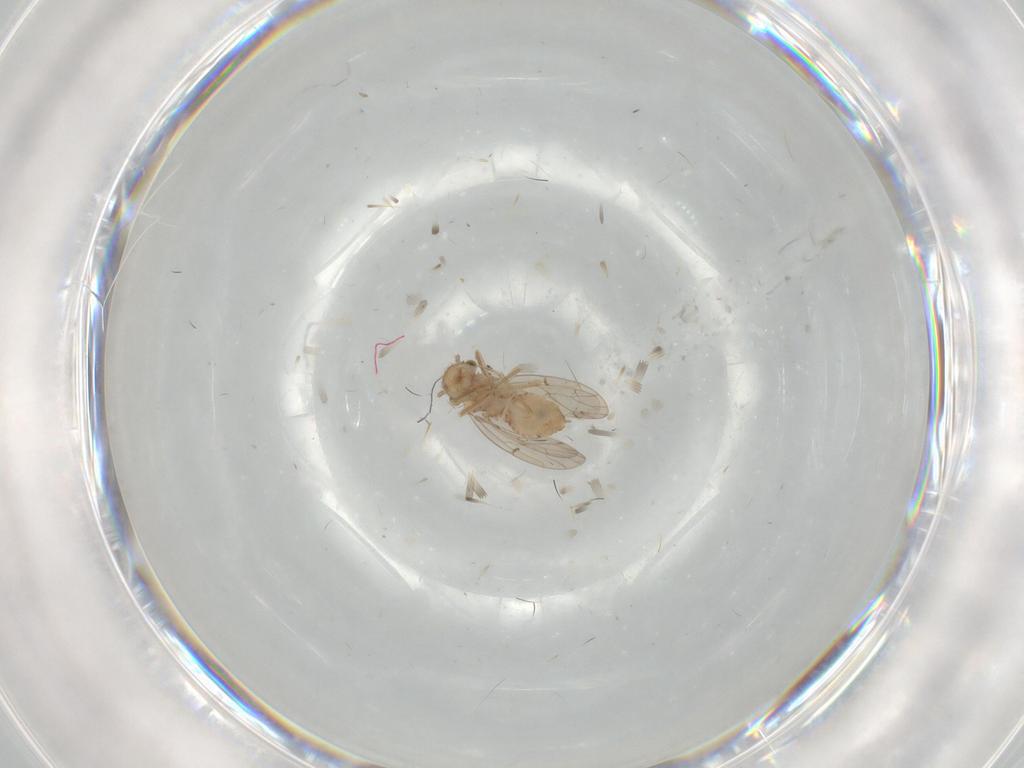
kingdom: Animalia
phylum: Arthropoda
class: Insecta
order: Psocodea
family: Ectopsocidae
